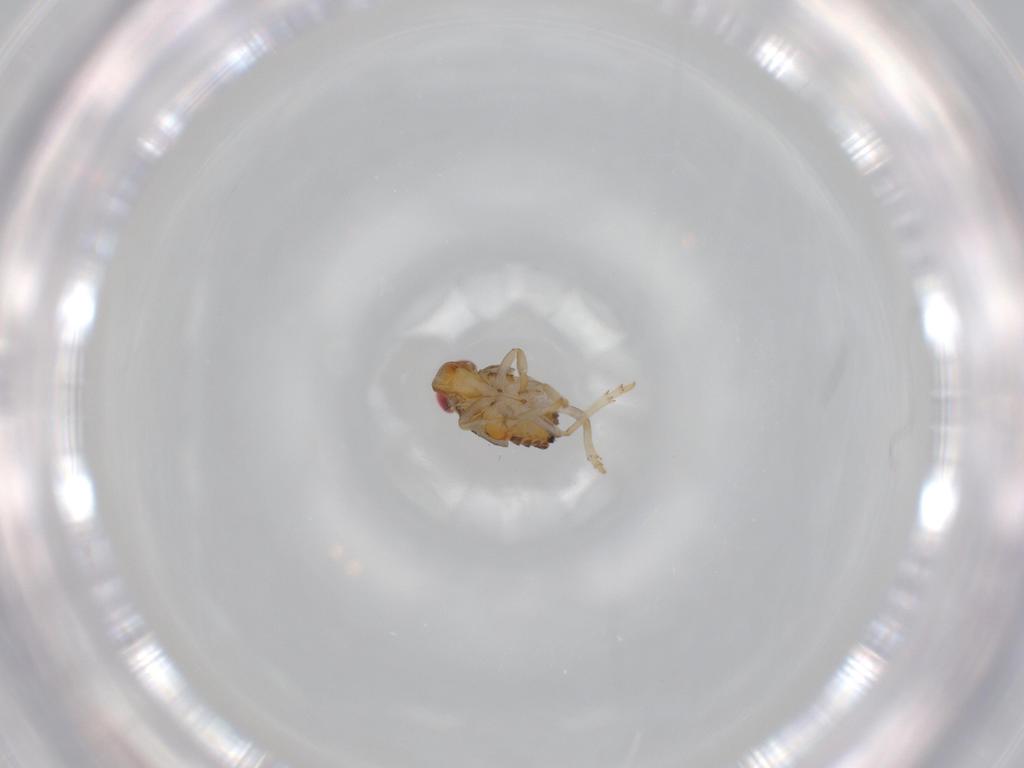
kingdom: Animalia
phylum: Arthropoda
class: Insecta
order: Hemiptera
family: Issidae
